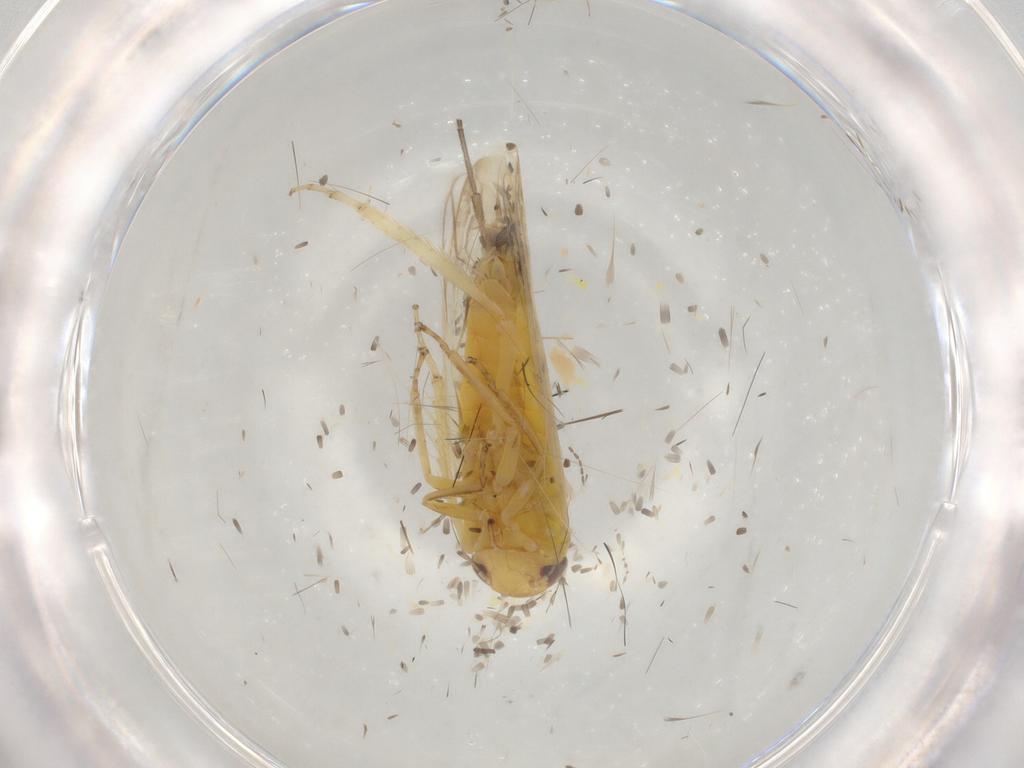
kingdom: Animalia
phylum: Arthropoda
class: Insecta
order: Hemiptera
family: Cicadellidae
